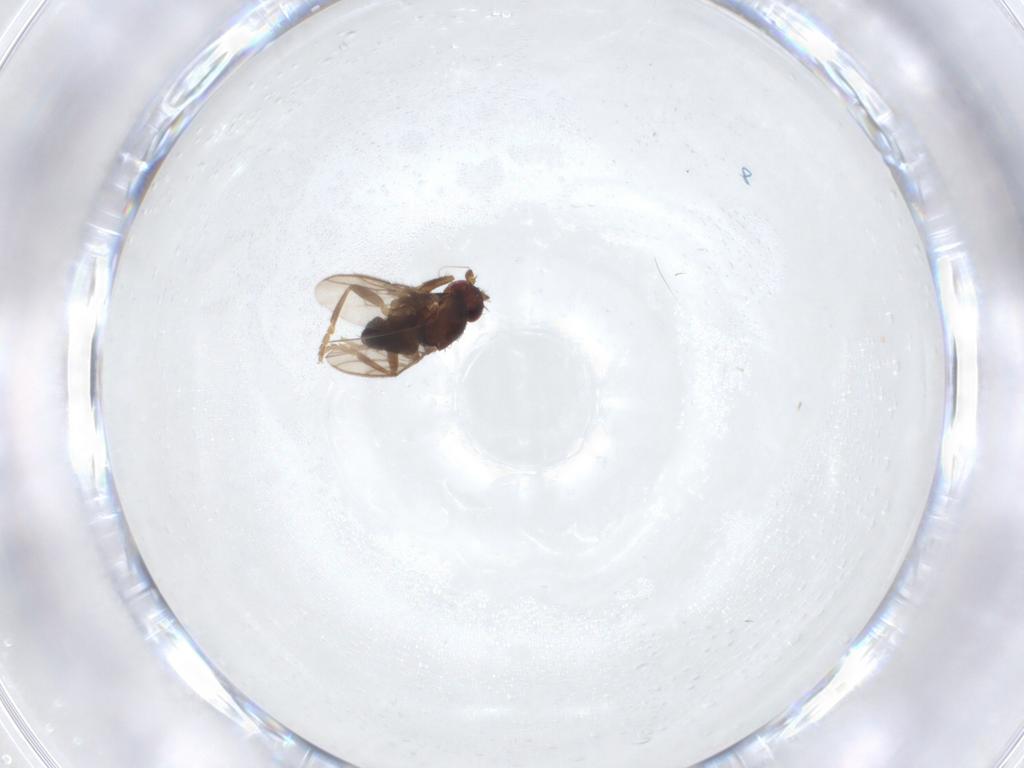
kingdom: Animalia
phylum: Arthropoda
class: Insecta
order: Diptera
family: Sphaeroceridae
